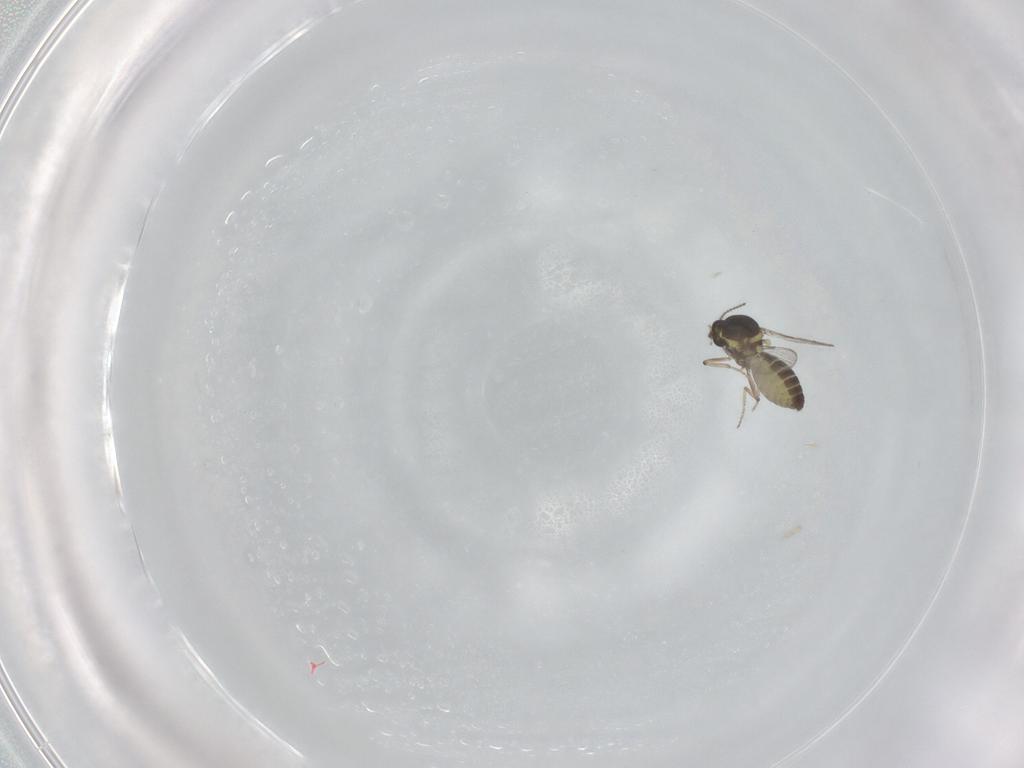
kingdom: Animalia
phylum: Arthropoda
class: Insecta
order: Diptera
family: Ceratopogonidae
